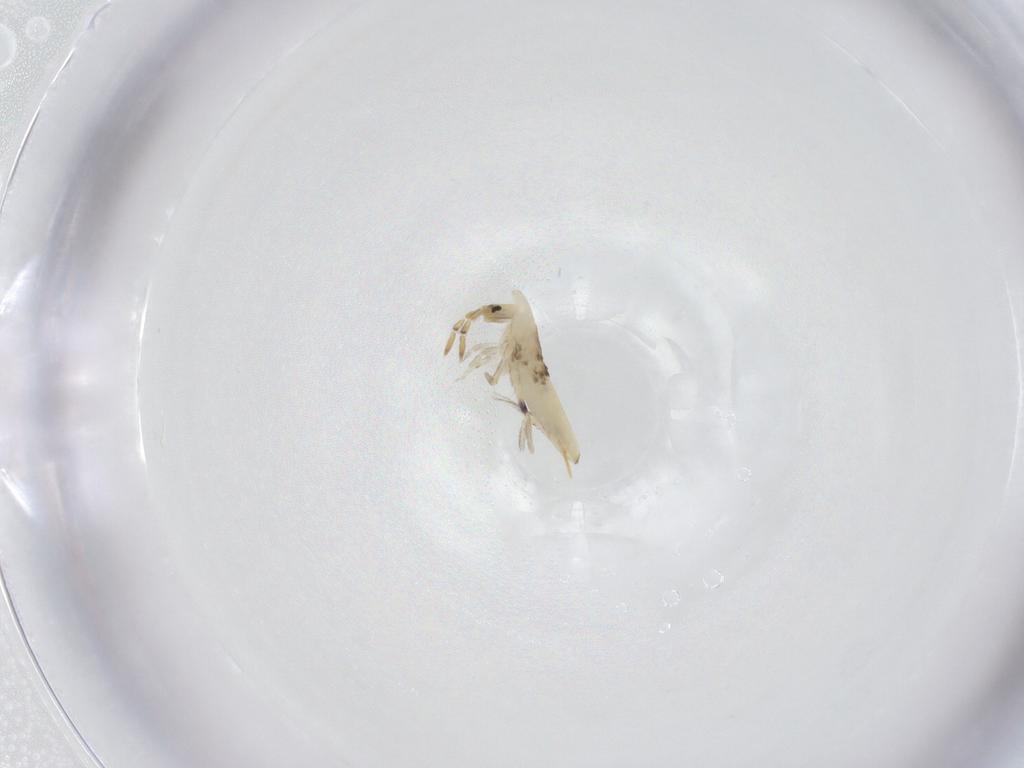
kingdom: Animalia
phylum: Arthropoda
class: Collembola
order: Entomobryomorpha
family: Entomobryidae
